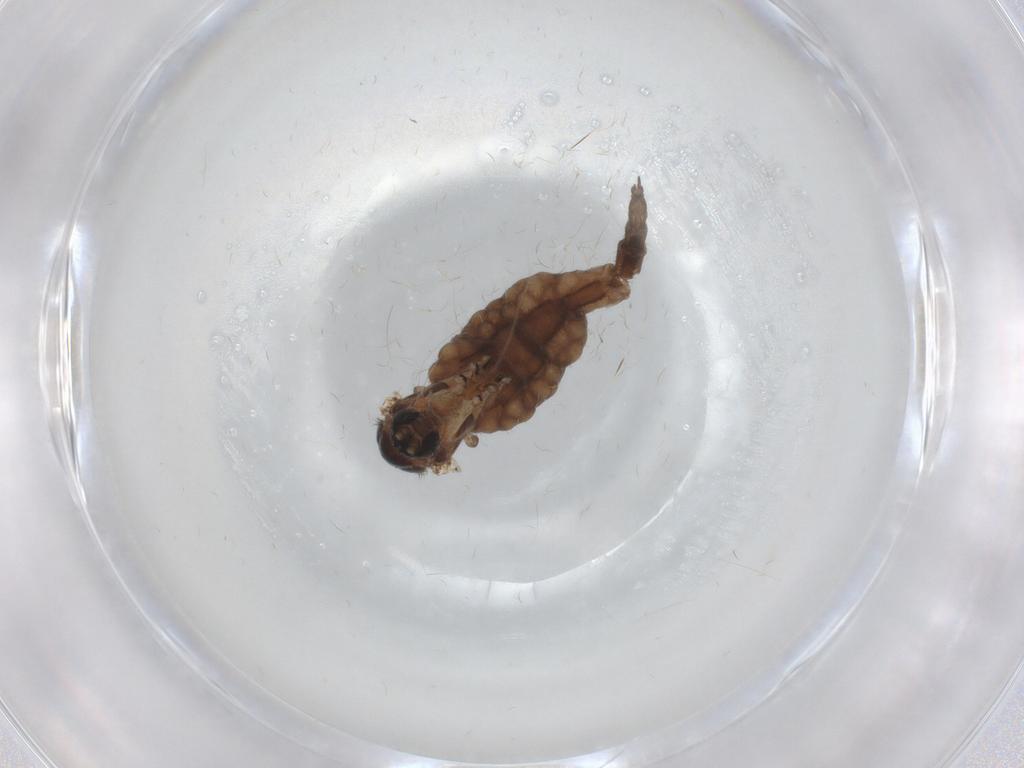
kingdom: Animalia
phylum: Arthropoda
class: Insecta
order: Diptera
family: Sciaridae
